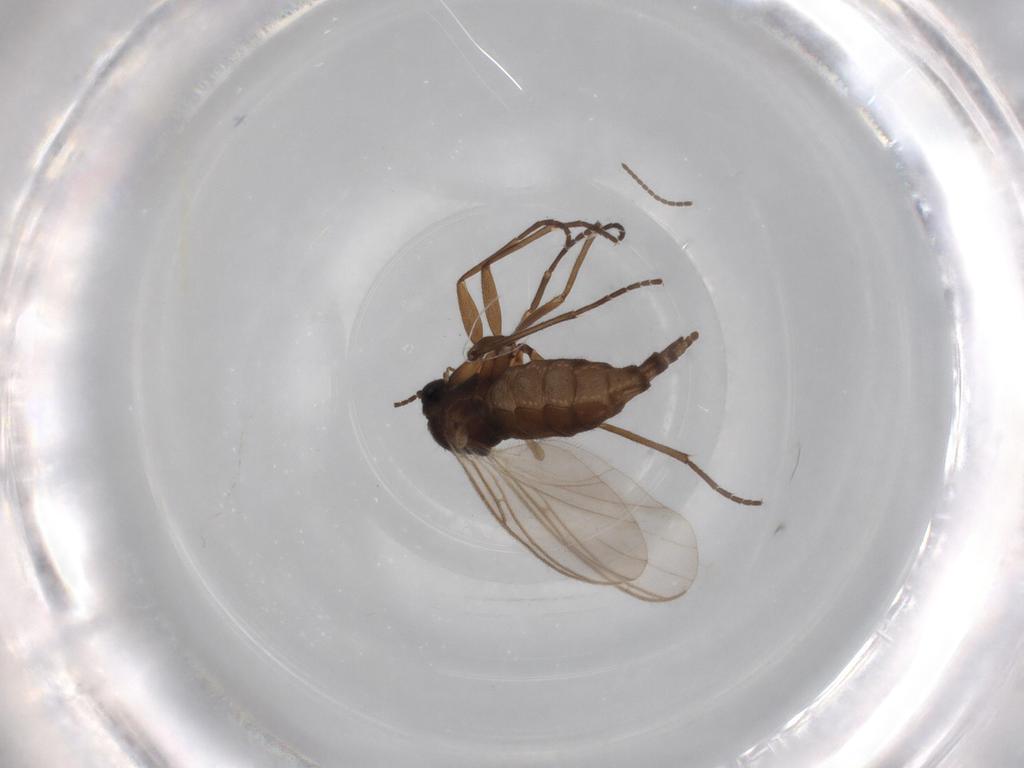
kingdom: Animalia
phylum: Arthropoda
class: Insecta
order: Diptera
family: Sciaridae
